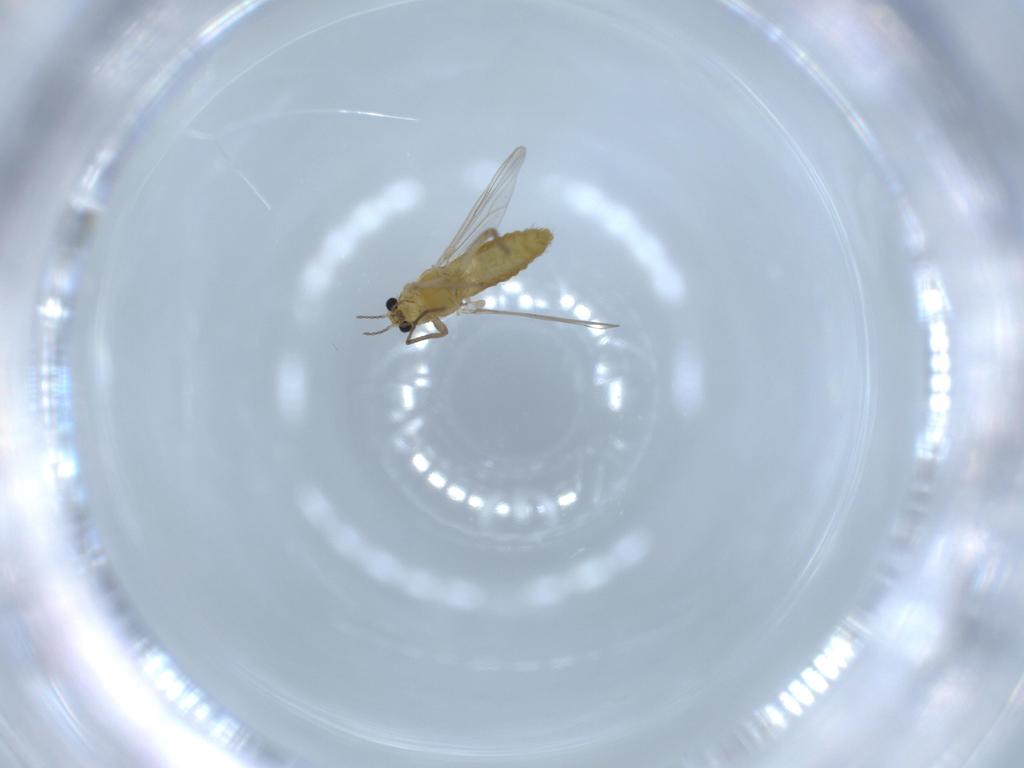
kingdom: Animalia
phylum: Arthropoda
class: Insecta
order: Diptera
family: Chironomidae
